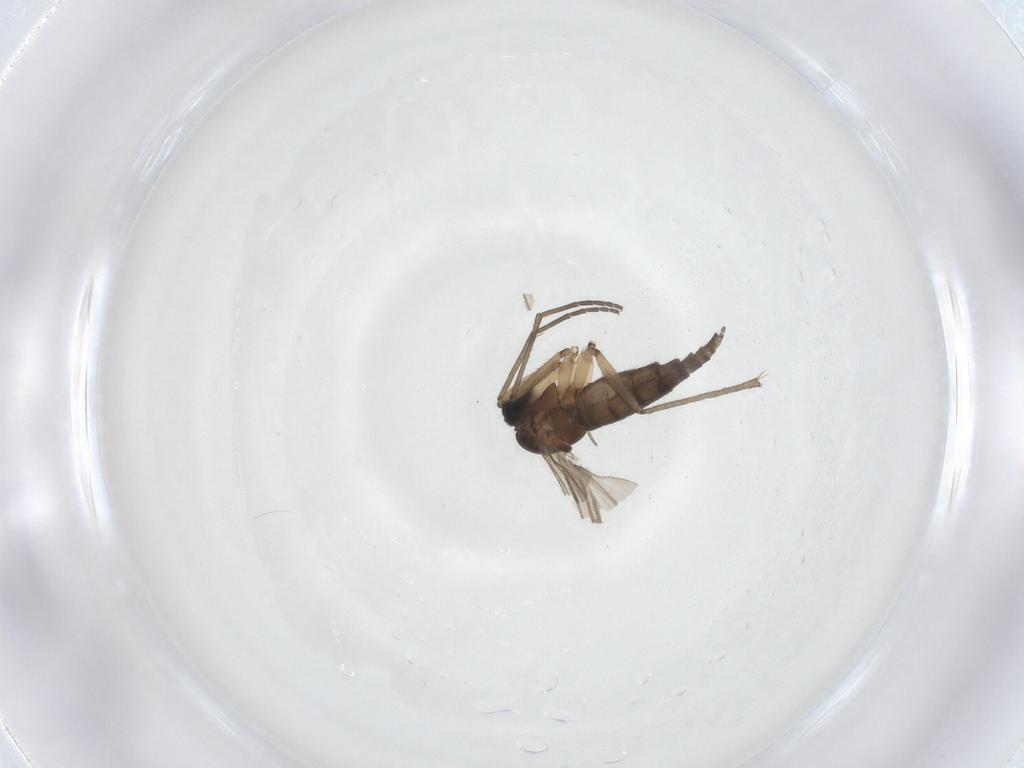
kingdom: Animalia
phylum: Arthropoda
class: Insecta
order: Diptera
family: Sciaridae
